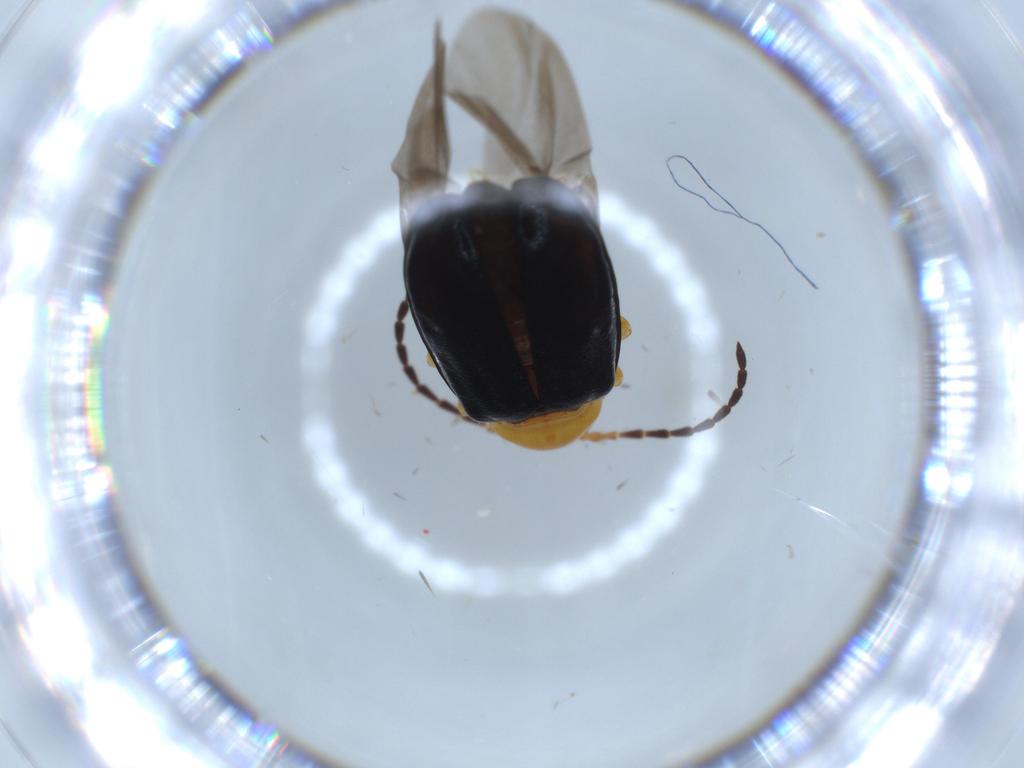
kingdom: Animalia
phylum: Arthropoda
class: Insecta
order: Coleoptera
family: Chrysomelidae
